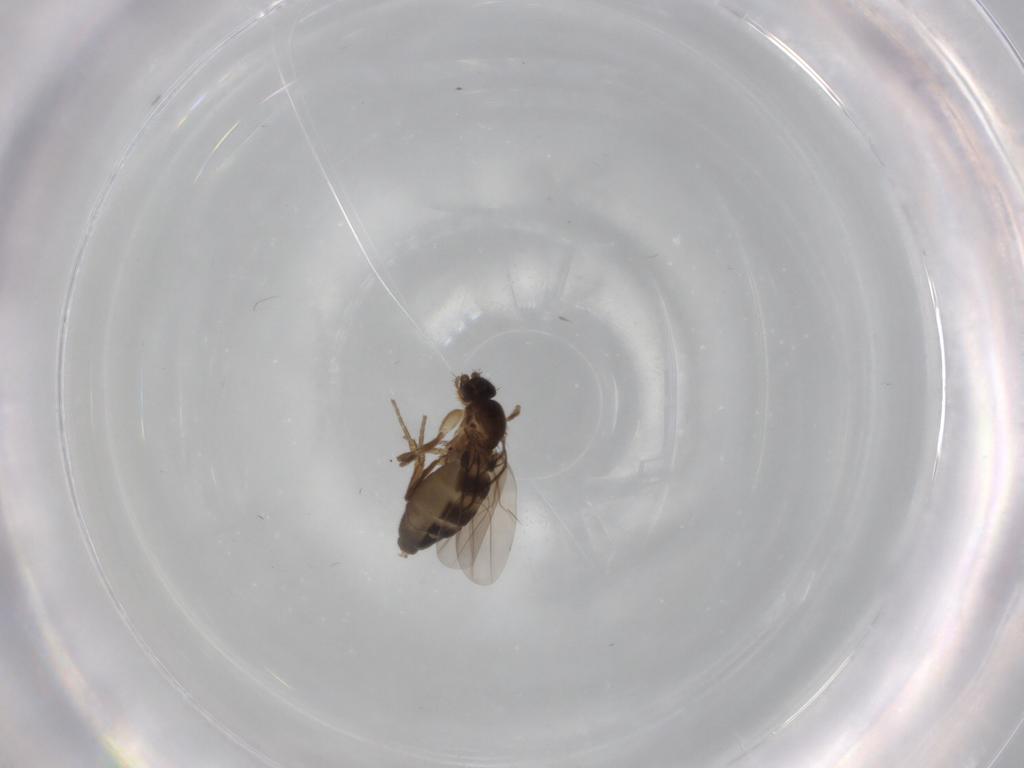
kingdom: Animalia
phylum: Arthropoda
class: Insecta
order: Diptera
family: Phoridae
